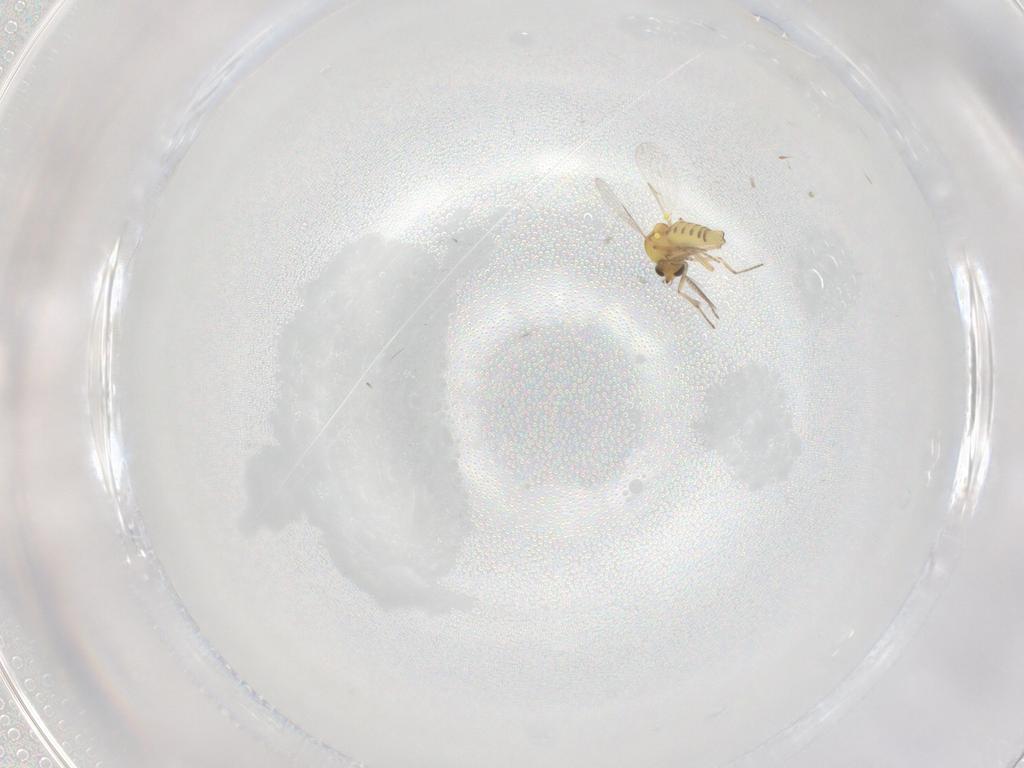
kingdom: Animalia
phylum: Arthropoda
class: Insecta
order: Diptera
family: Ceratopogonidae
